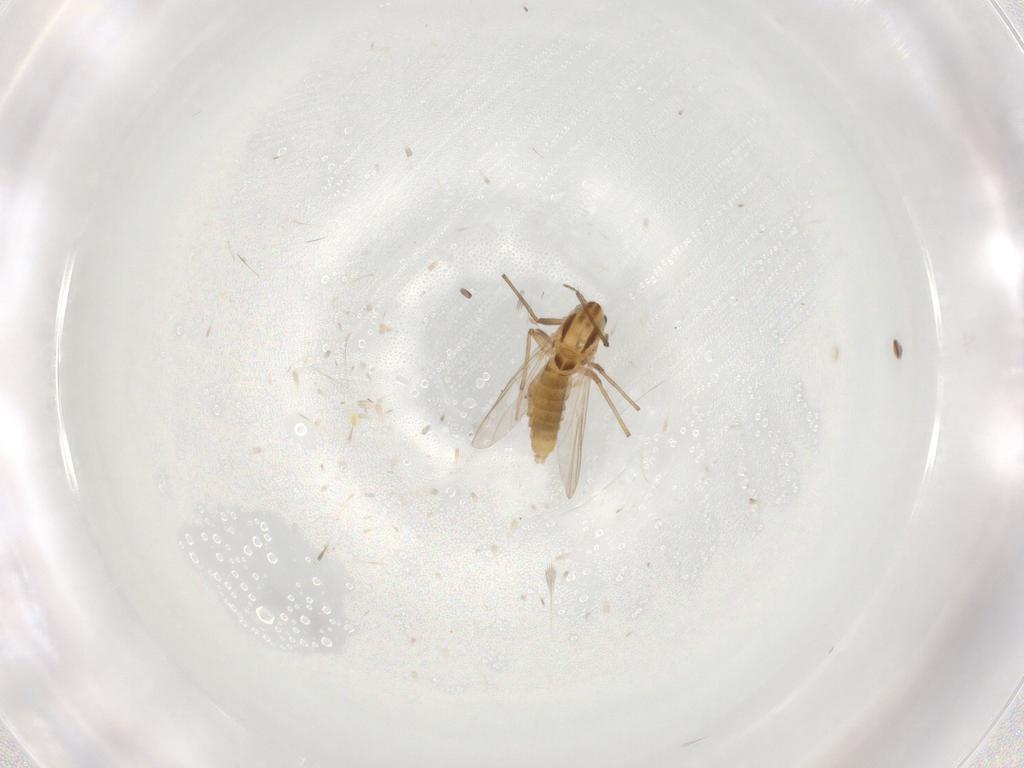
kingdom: Animalia
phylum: Arthropoda
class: Insecta
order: Diptera
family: Chironomidae
